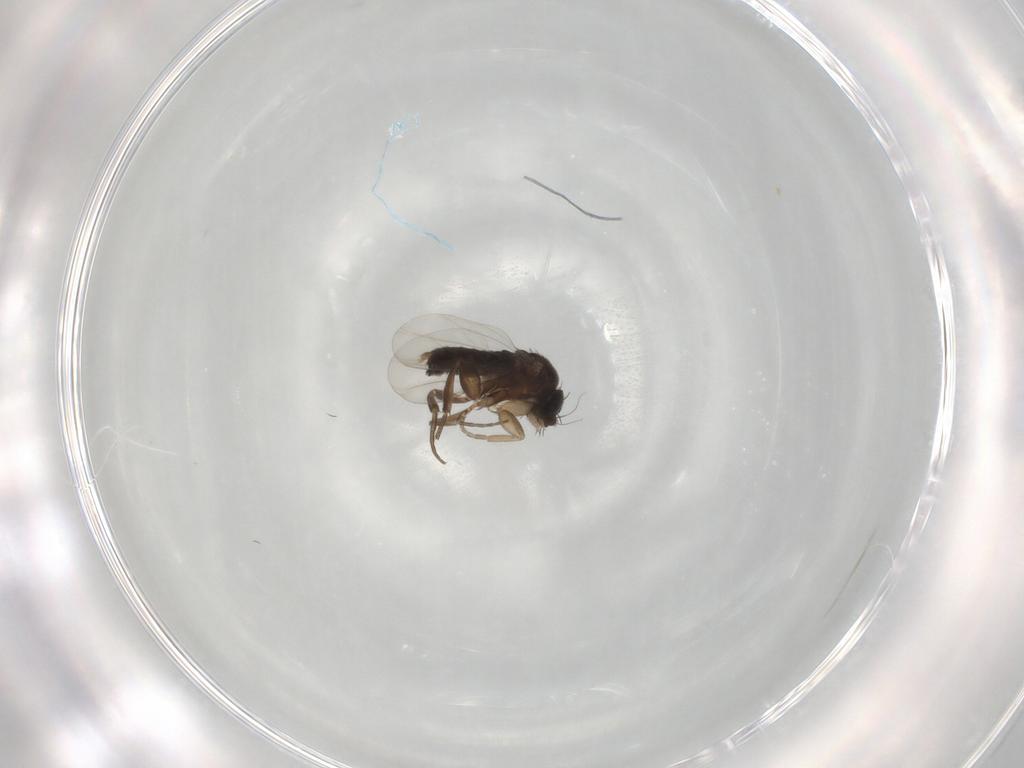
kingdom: Animalia
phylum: Arthropoda
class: Insecta
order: Diptera
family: Phoridae
